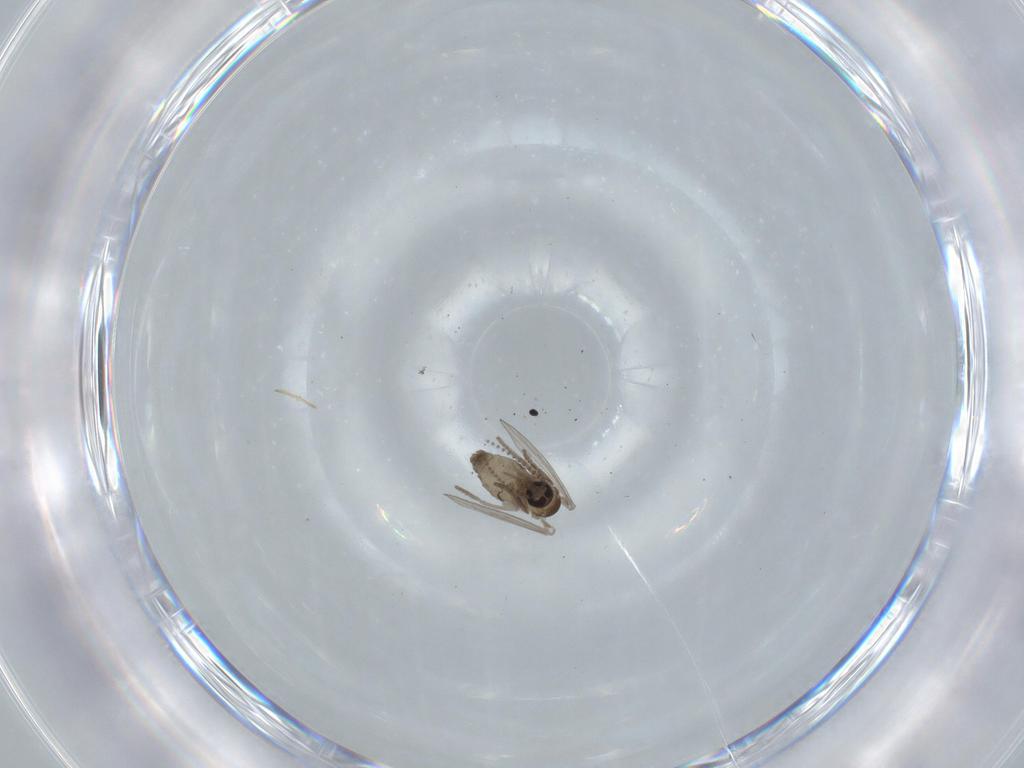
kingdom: Animalia
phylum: Arthropoda
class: Insecta
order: Diptera
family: Psychodidae
